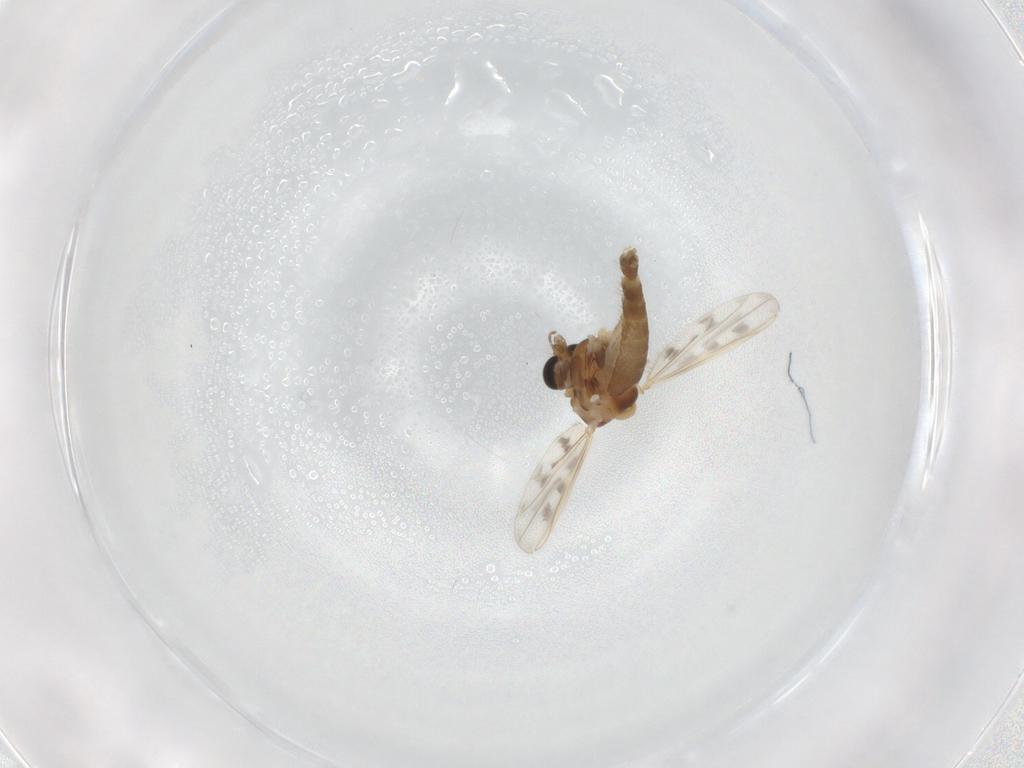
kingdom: Animalia
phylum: Arthropoda
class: Insecta
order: Diptera
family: Chironomidae
